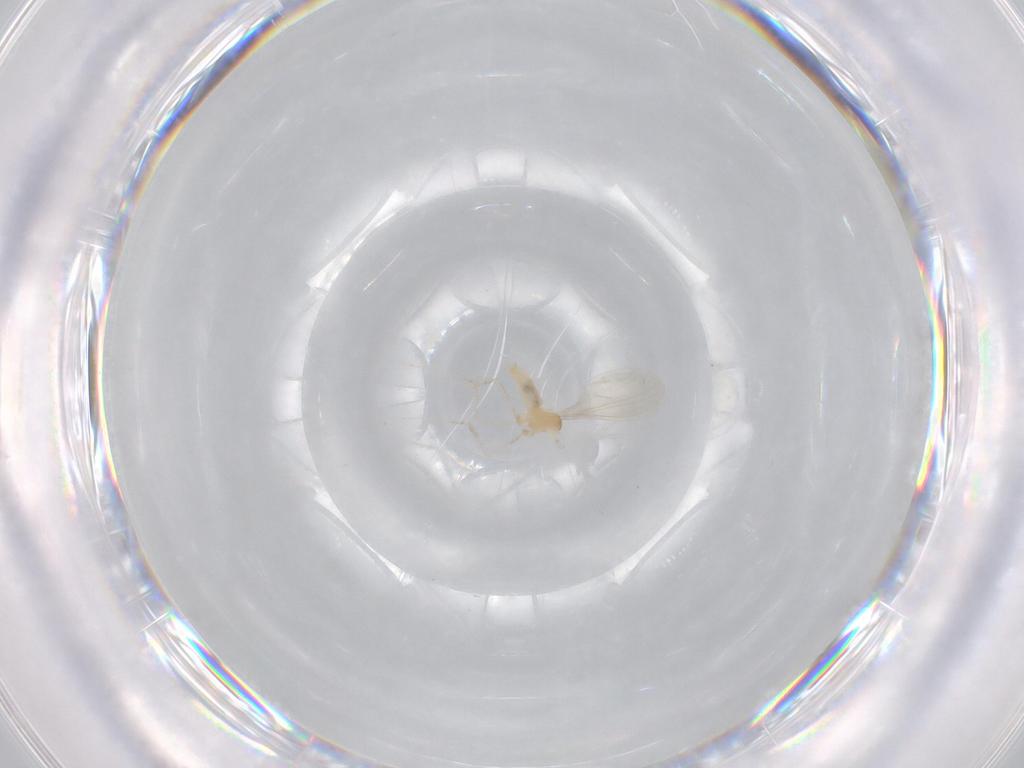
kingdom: Animalia
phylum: Arthropoda
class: Insecta
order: Diptera
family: Cecidomyiidae
